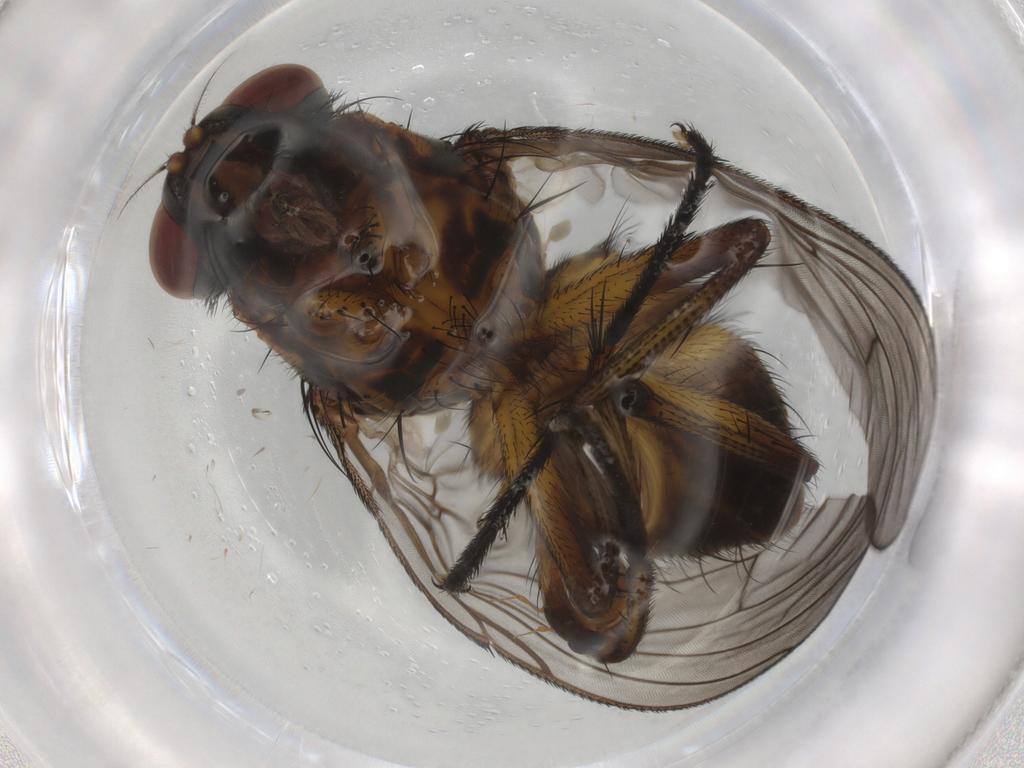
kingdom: Animalia
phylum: Arthropoda
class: Insecta
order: Diptera
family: Muscidae
